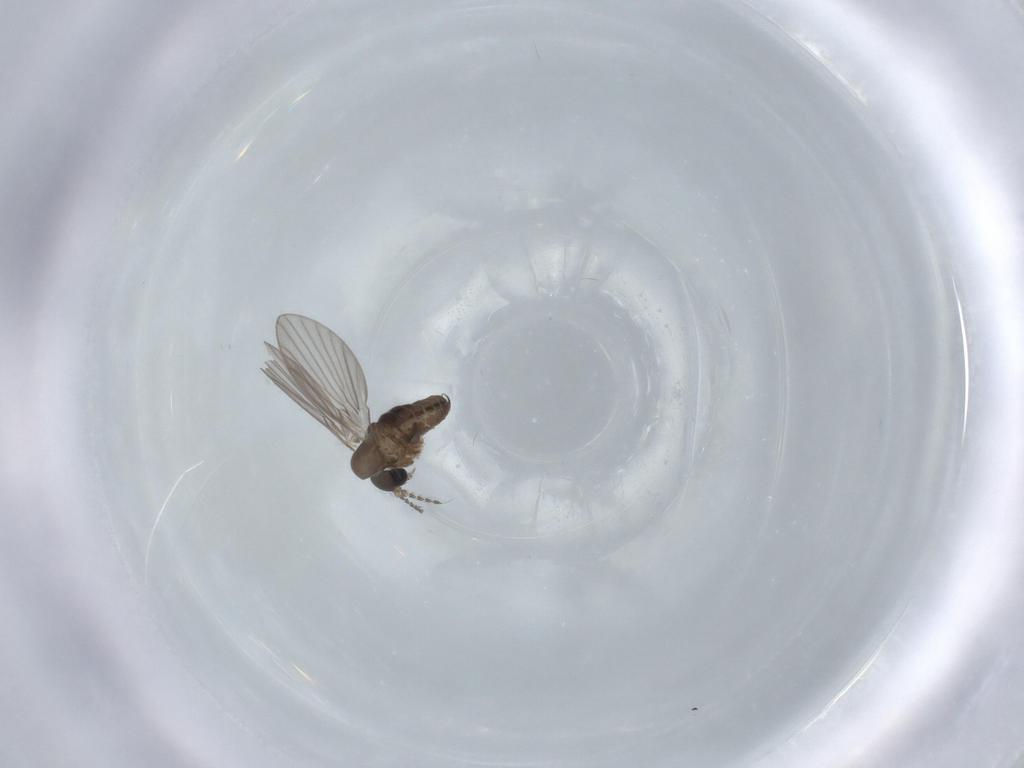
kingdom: Animalia
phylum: Arthropoda
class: Insecta
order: Diptera
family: Psychodidae
